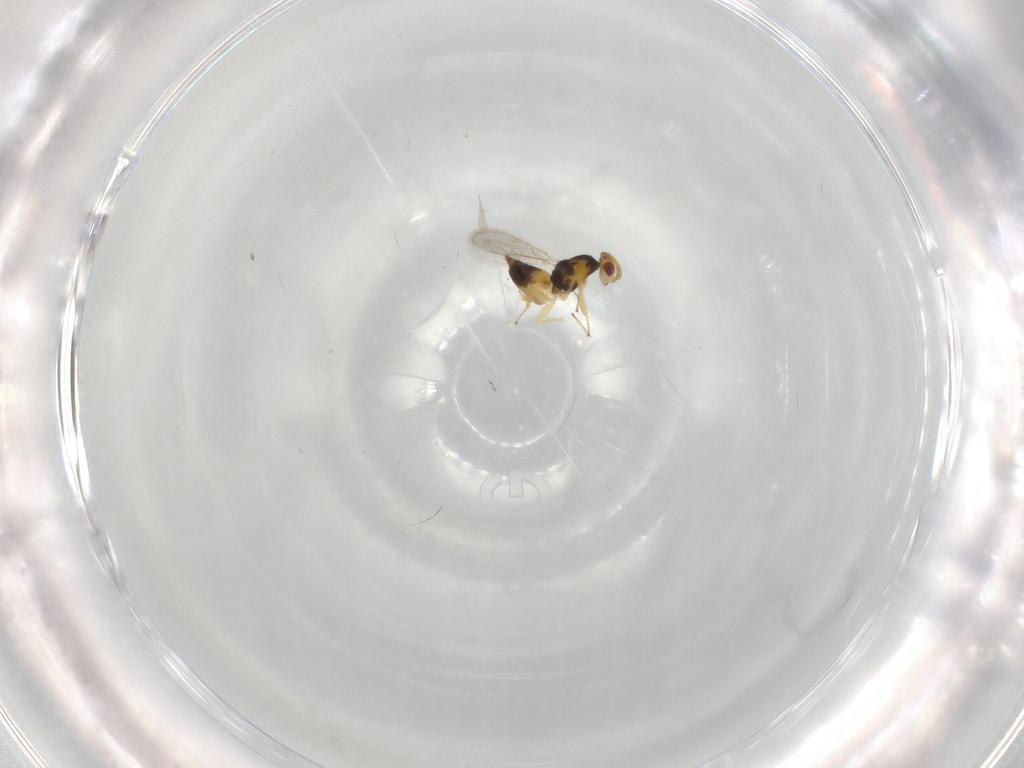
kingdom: Animalia
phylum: Arthropoda
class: Insecta
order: Hymenoptera
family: Eulophidae
